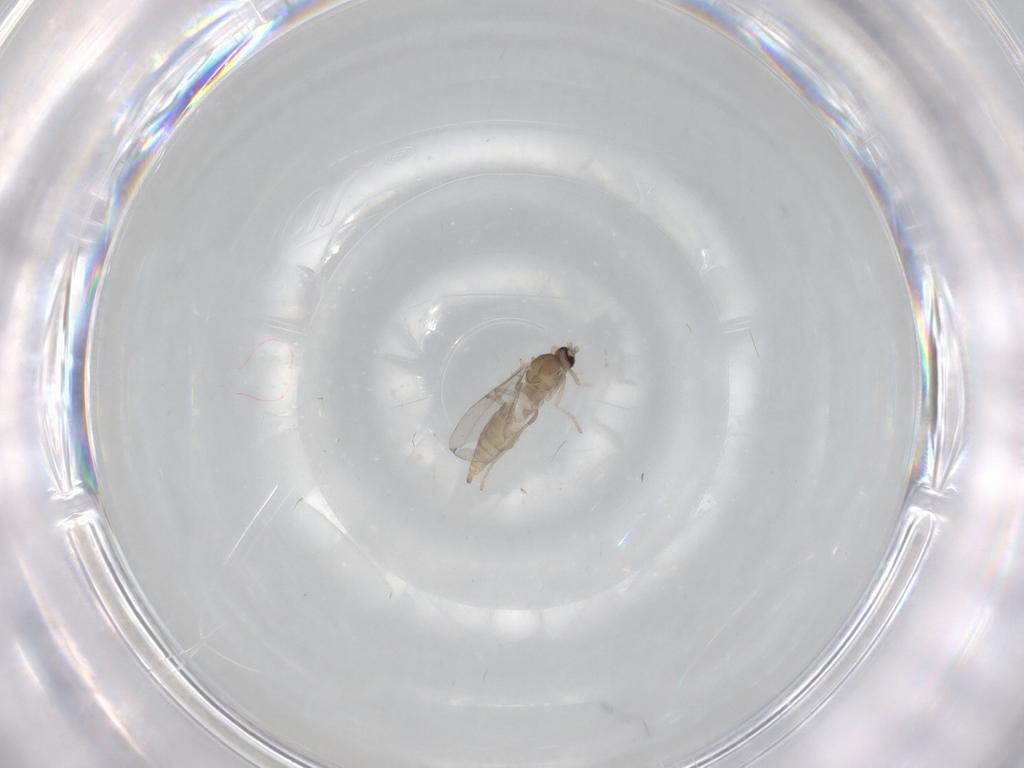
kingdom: Animalia
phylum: Arthropoda
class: Insecta
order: Diptera
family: Cecidomyiidae
